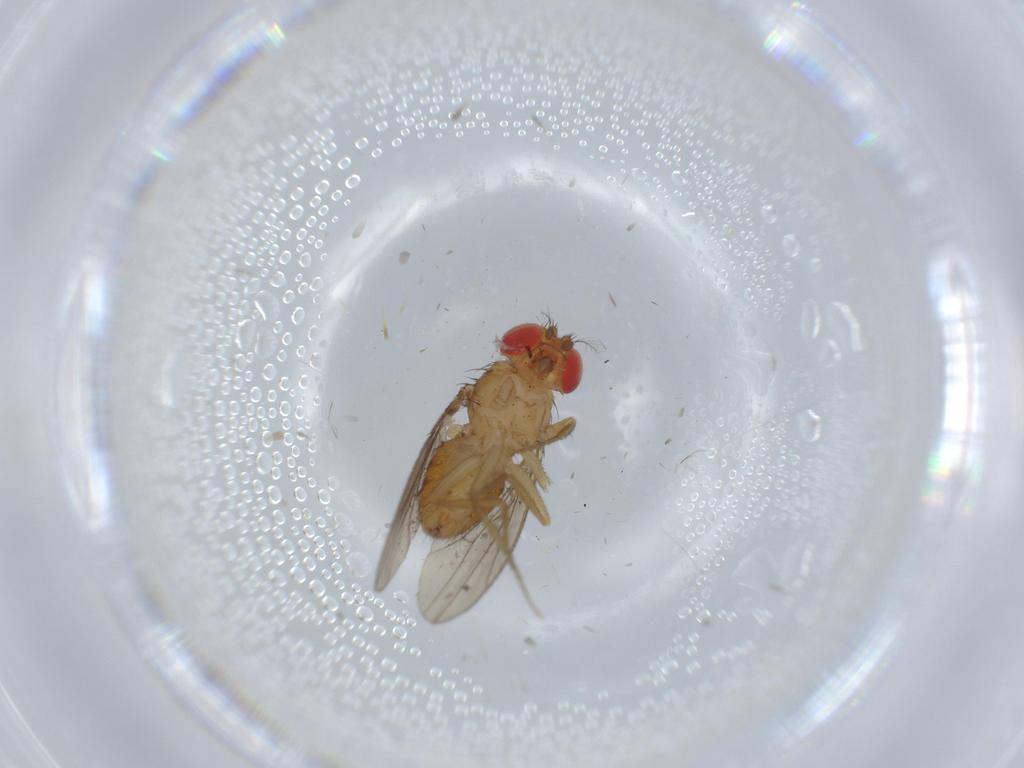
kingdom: Animalia
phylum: Arthropoda
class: Insecta
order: Diptera
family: Drosophilidae
